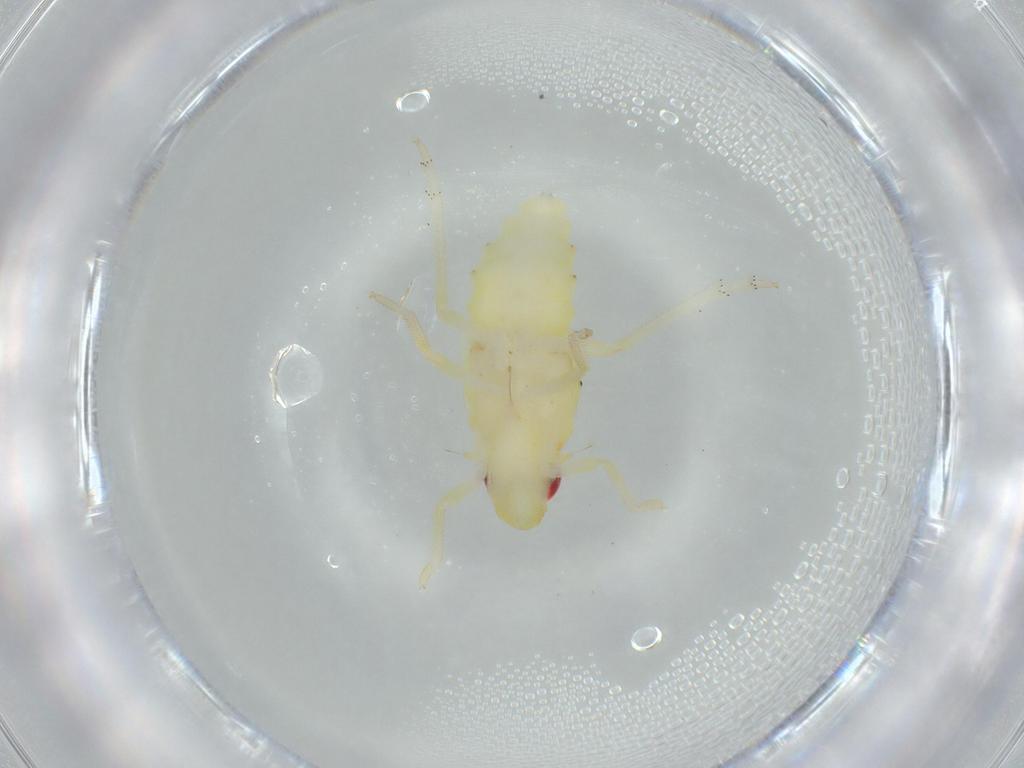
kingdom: Animalia
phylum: Arthropoda
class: Insecta
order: Hemiptera
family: Tropiduchidae
